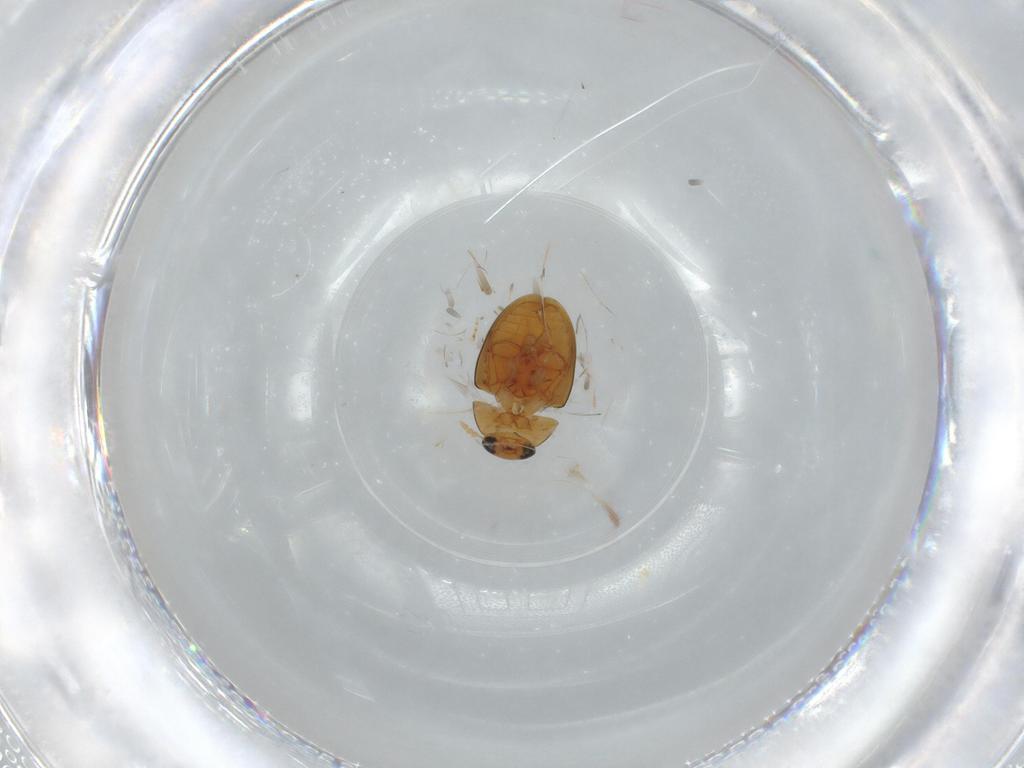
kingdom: Animalia
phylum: Arthropoda
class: Insecta
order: Coleoptera
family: Phalacridae
